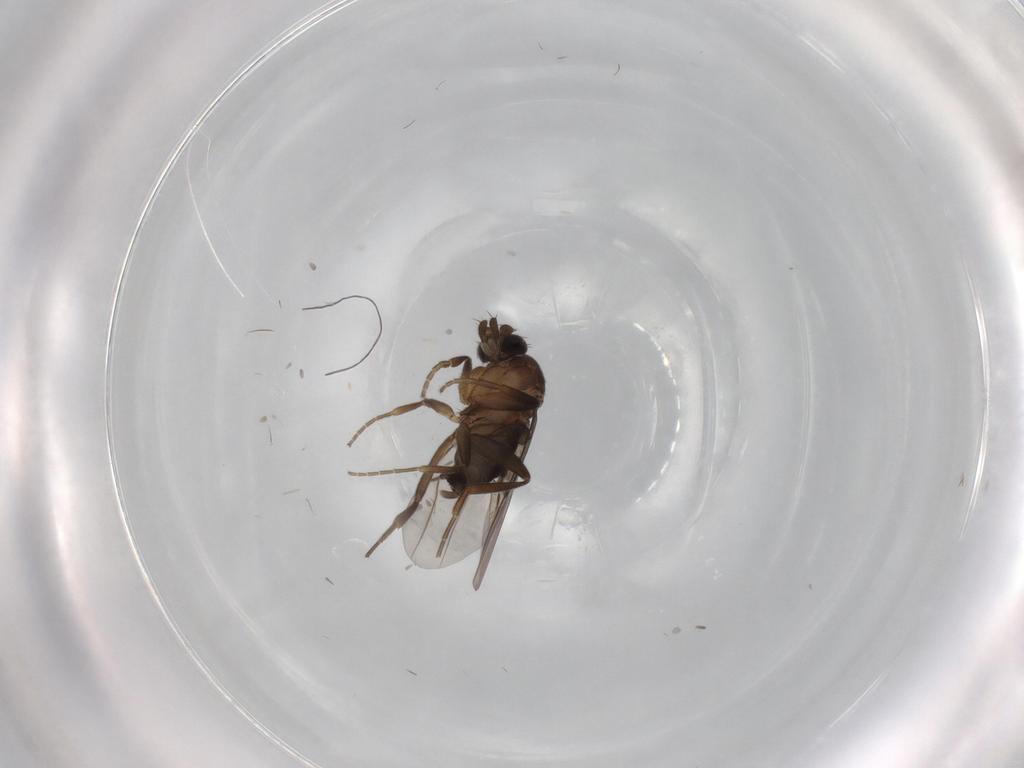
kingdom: Animalia
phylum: Arthropoda
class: Insecta
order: Diptera
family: Phoridae
